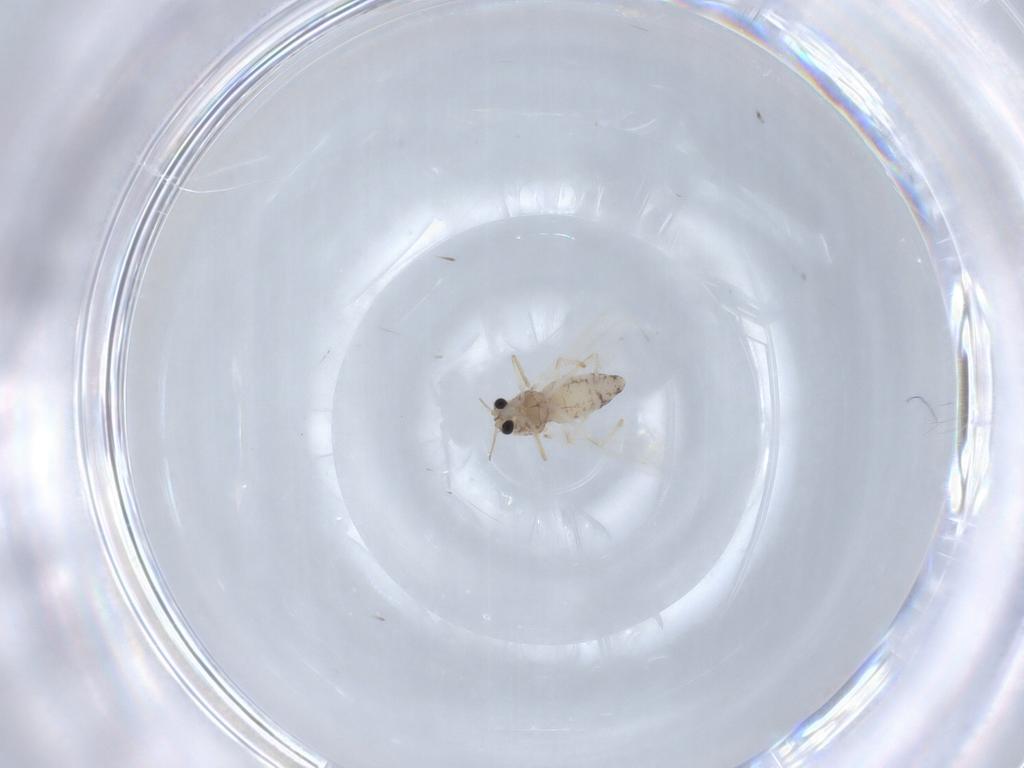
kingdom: Animalia
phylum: Arthropoda
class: Insecta
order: Diptera
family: Chironomidae
